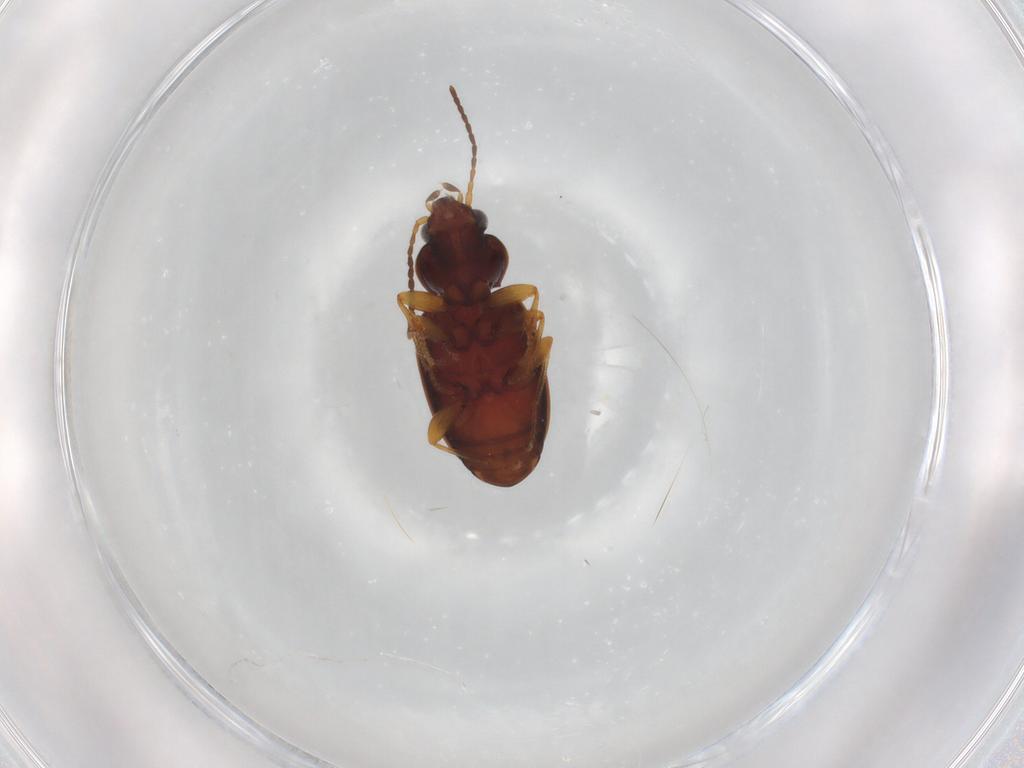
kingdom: Animalia
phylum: Arthropoda
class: Insecta
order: Coleoptera
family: Carabidae
